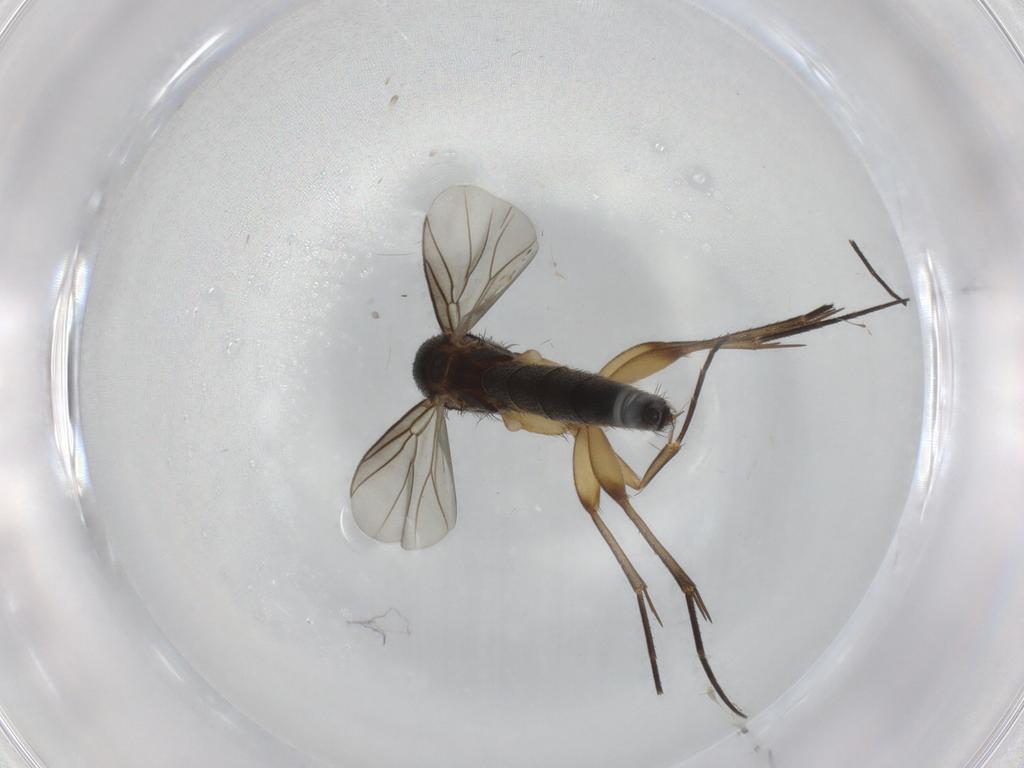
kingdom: Animalia
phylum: Arthropoda
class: Insecta
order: Diptera
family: Mycetophilidae
